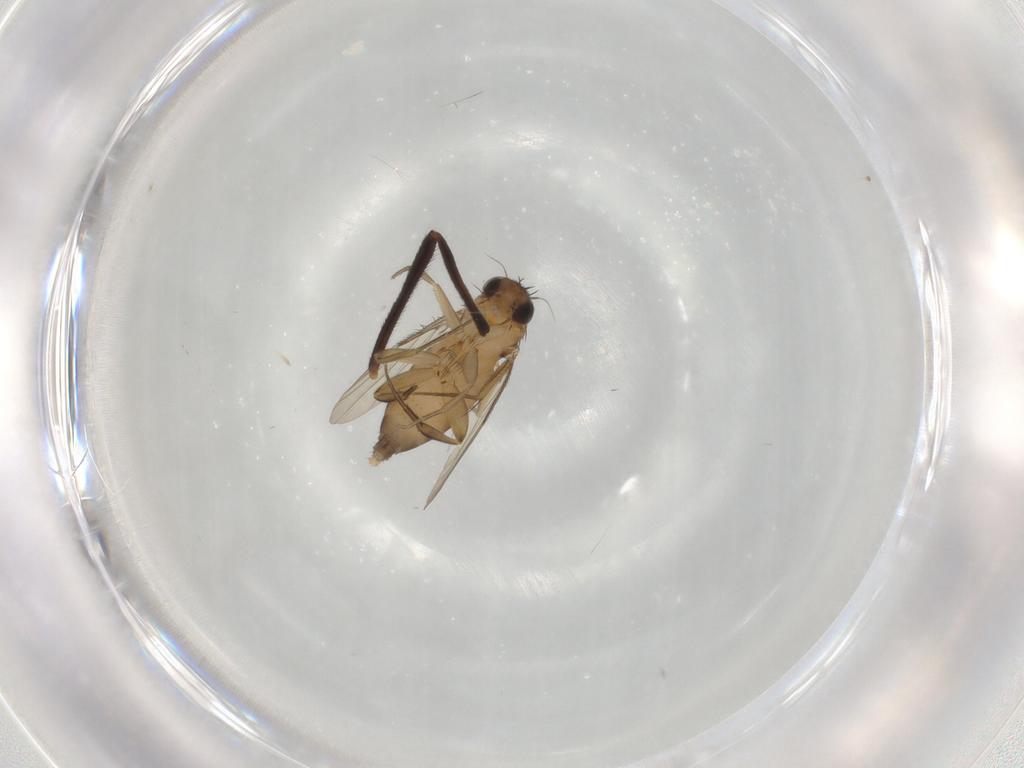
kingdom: Animalia
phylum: Arthropoda
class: Insecta
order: Diptera
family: Phoridae
